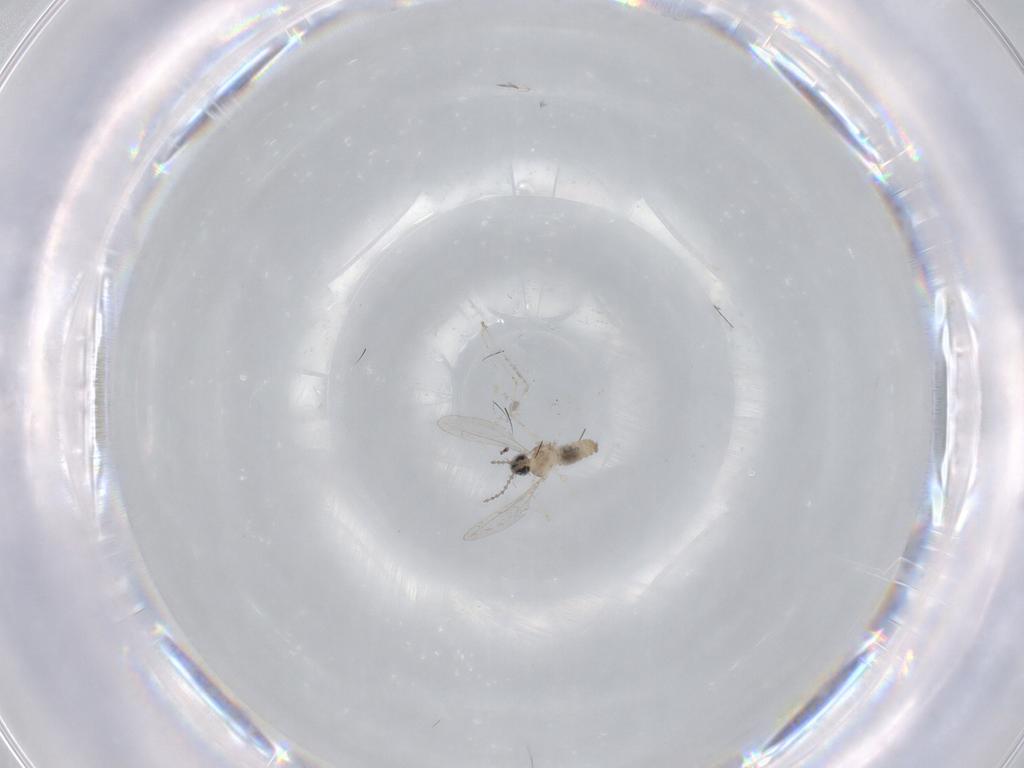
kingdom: Animalia
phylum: Arthropoda
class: Insecta
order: Diptera
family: Cecidomyiidae
